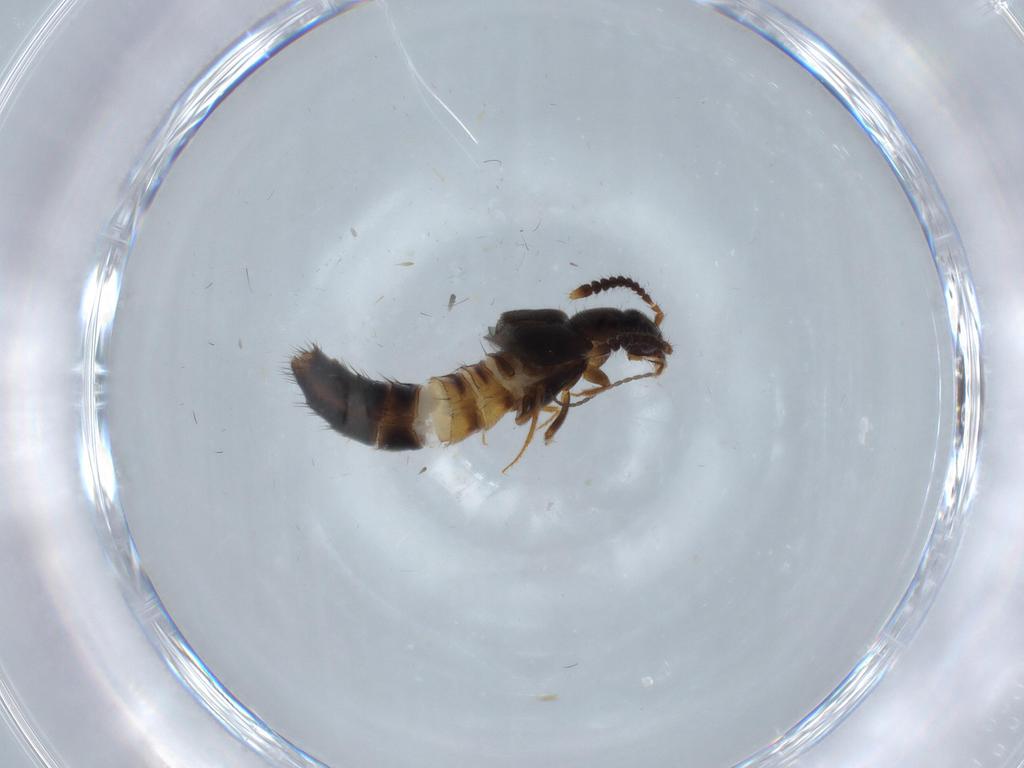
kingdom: Animalia
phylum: Arthropoda
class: Insecta
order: Coleoptera
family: Staphylinidae
